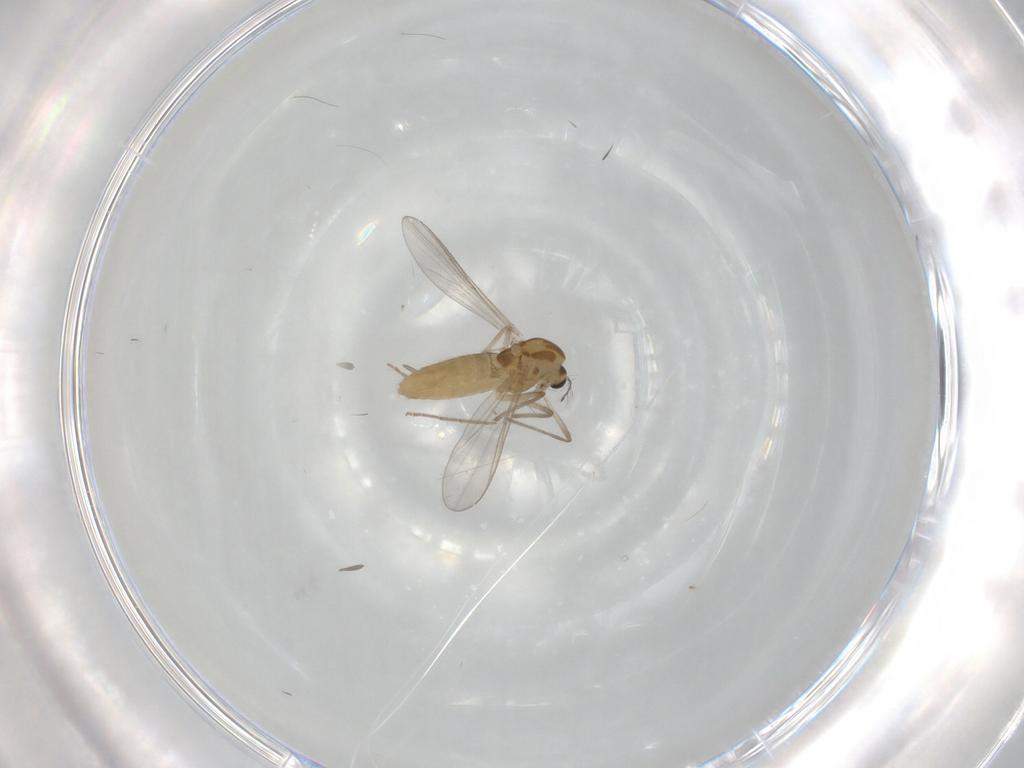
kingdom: Animalia
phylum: Arthropoda
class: Insecta
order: Diptera
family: Chironomidae
